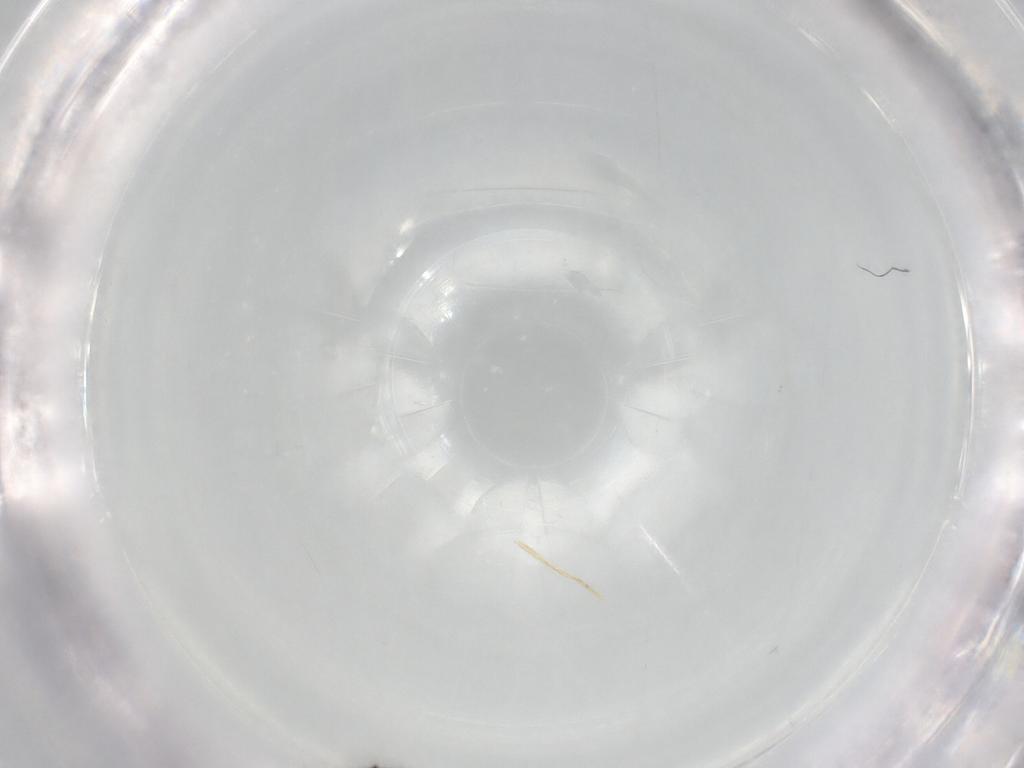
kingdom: Animalia
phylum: Arthropoda
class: Insecta
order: Hymenoptera
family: Scelionidae
